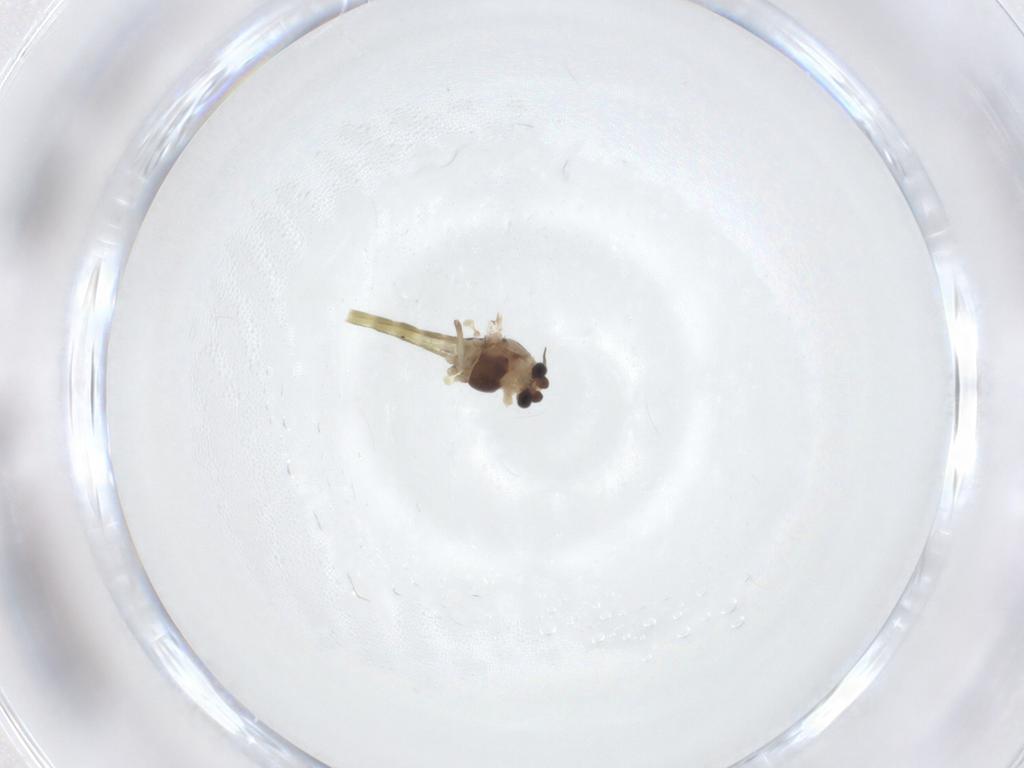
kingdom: Animalia
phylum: Arthropoda
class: Insecta
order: Diptera
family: Chironomidae
